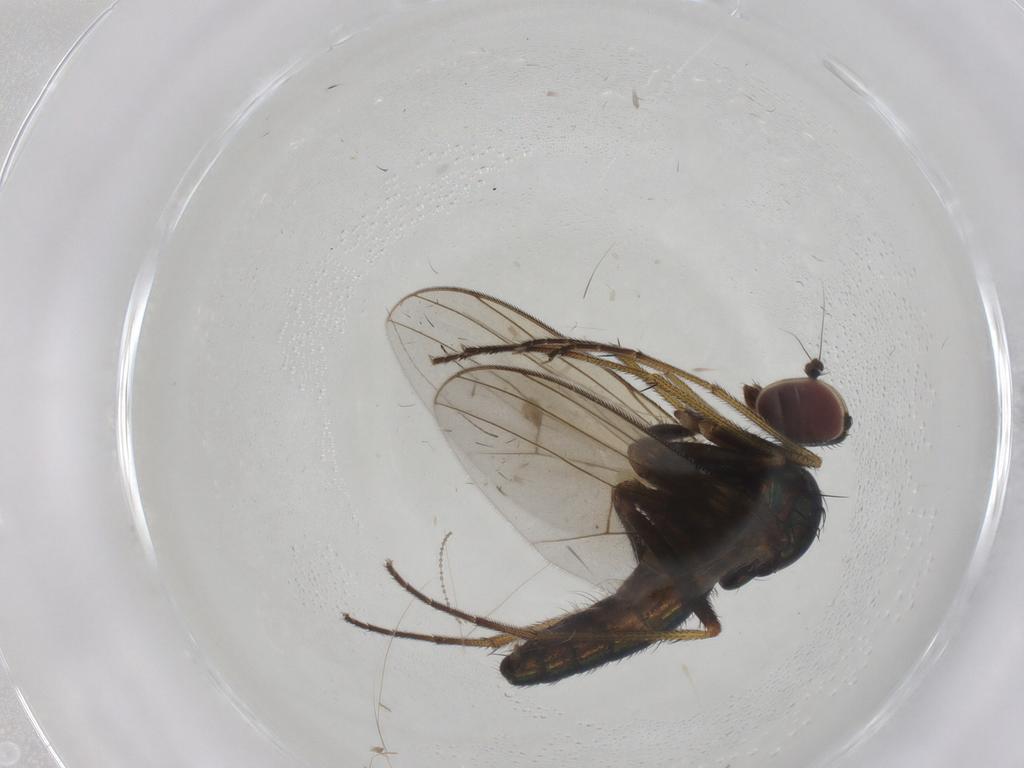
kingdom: Animalia
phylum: Arthropoda
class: Insecta
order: Diptera
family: Dolichopodidae
